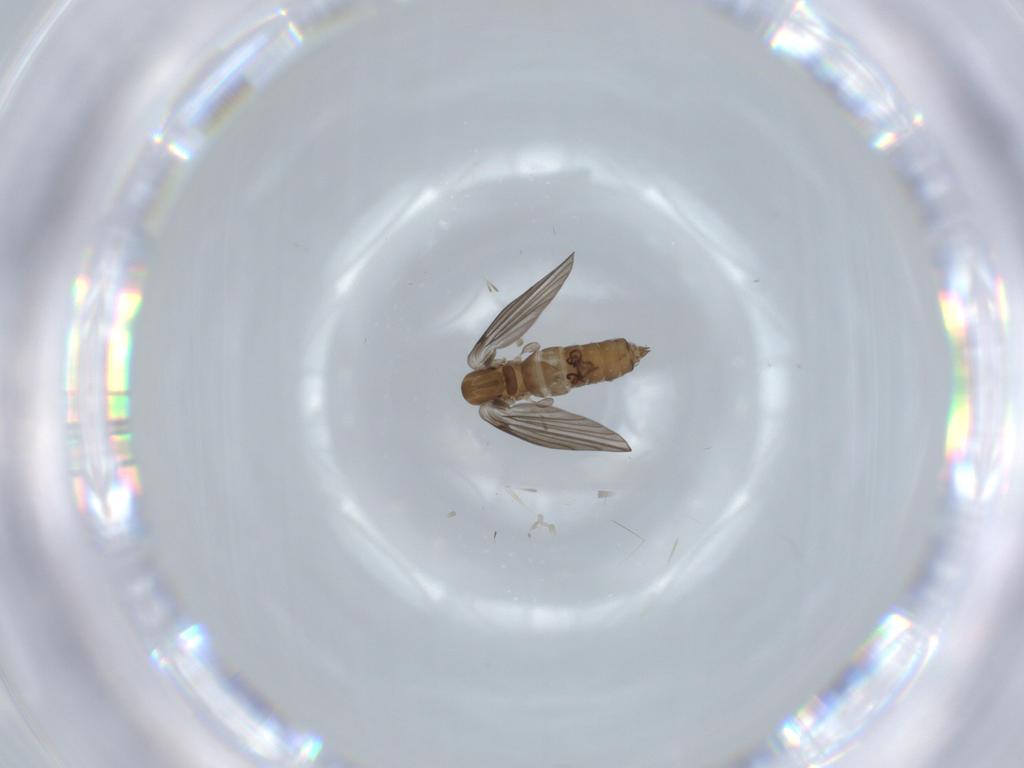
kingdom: Animalia
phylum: Arthropoda
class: Insecta
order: Diptera
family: Psychodidae
